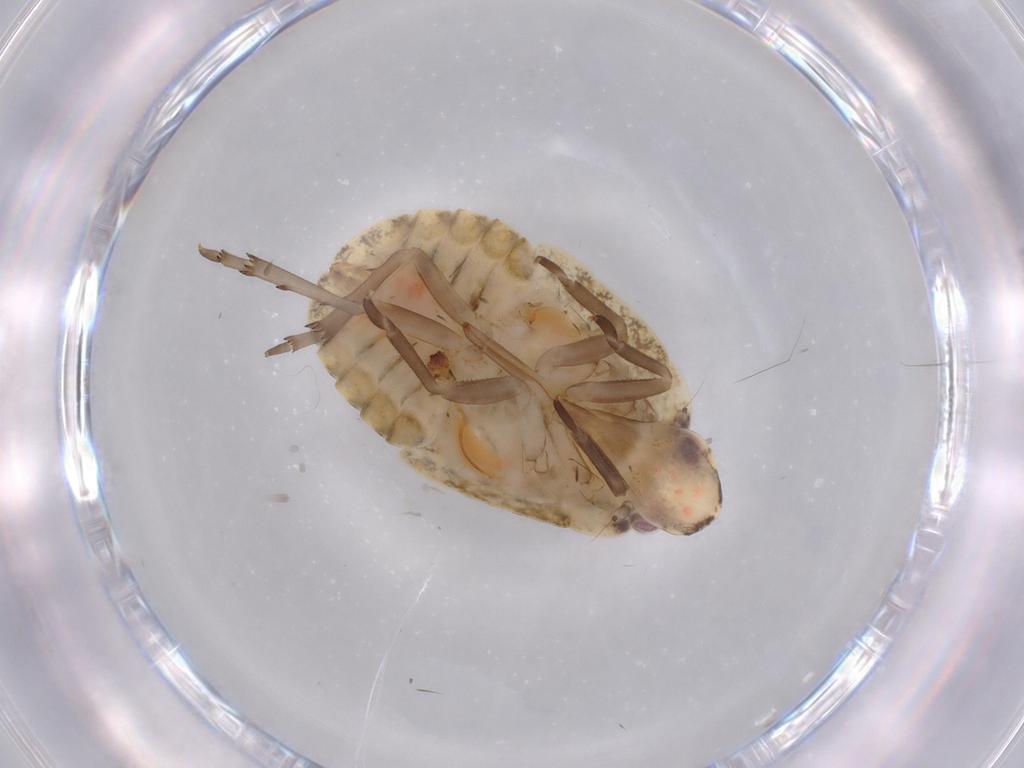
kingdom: Animalia
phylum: Arthropoda
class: Insecta
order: Hemiptera
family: Flatidae
